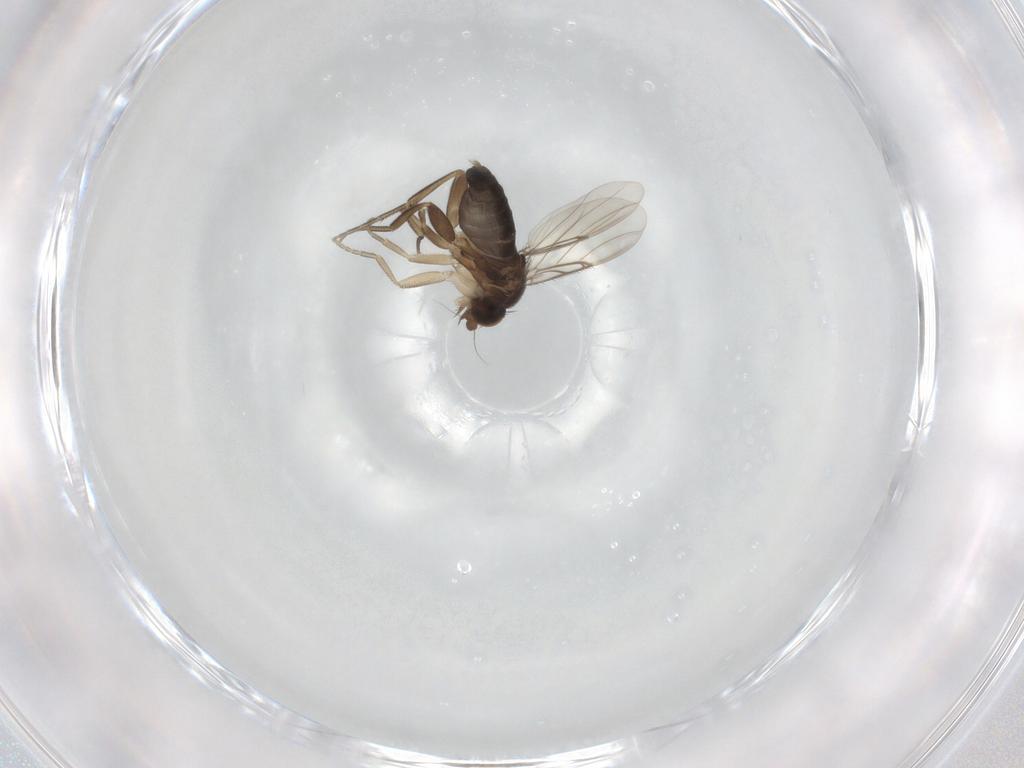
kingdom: Animalia
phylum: Arthropoda
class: Insecta
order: Diptera
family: Phoridae
